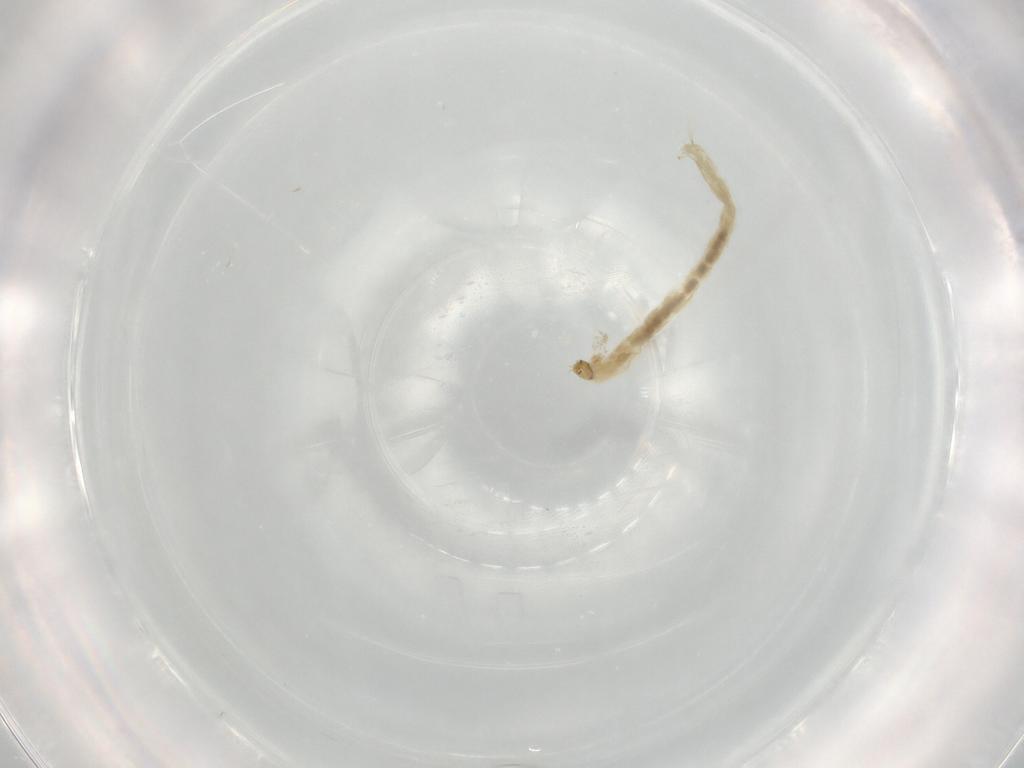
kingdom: Animalia
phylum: Arthropoda
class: Insecta
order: Diptera
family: Chironomidae
